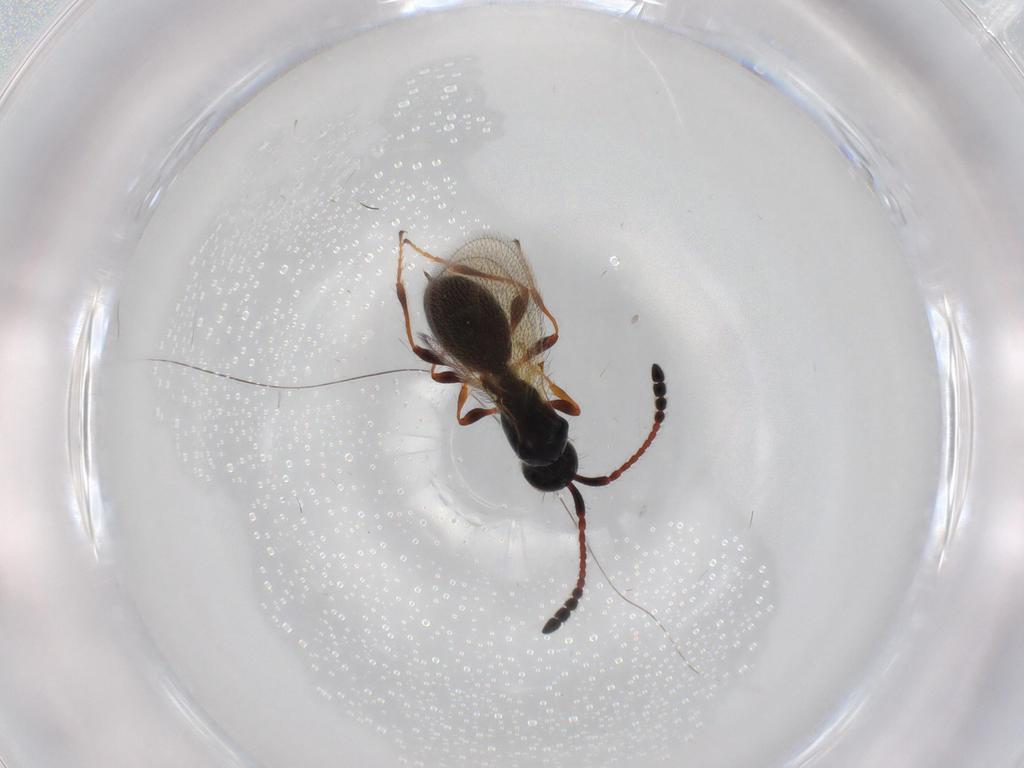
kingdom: Animalia
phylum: Arthropoda
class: Insecta
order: Hymenoptera
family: Diapriidae
